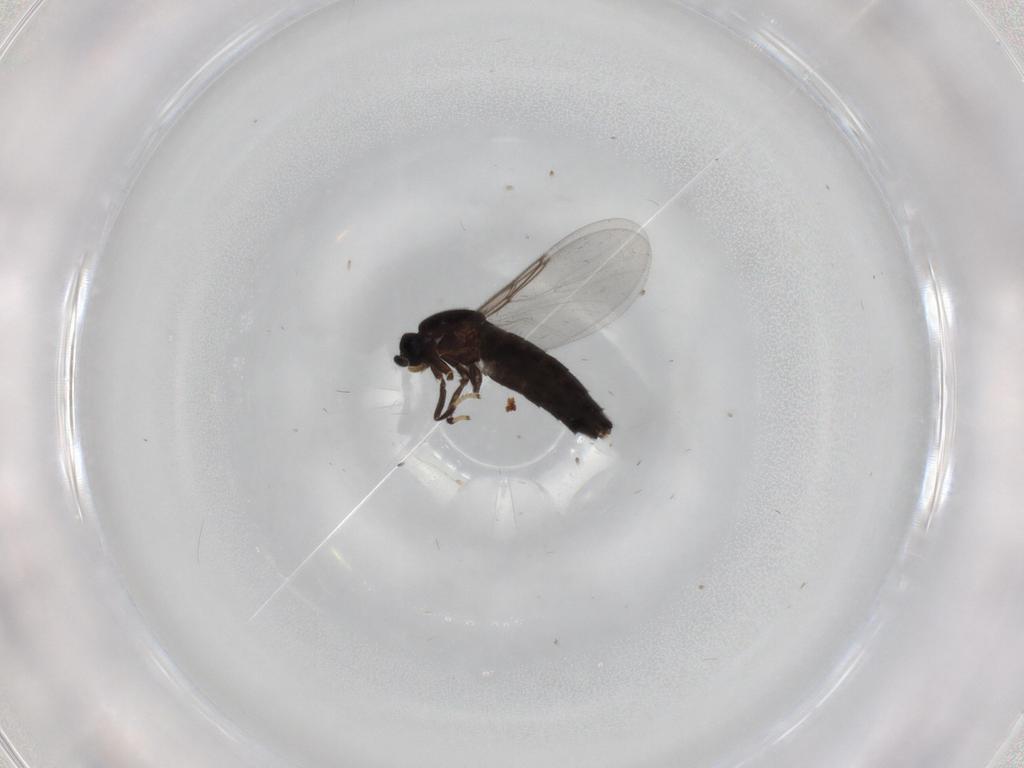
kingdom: Animalia
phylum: Arthropoda
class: Insecta
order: Diptera
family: Scatopsidae
